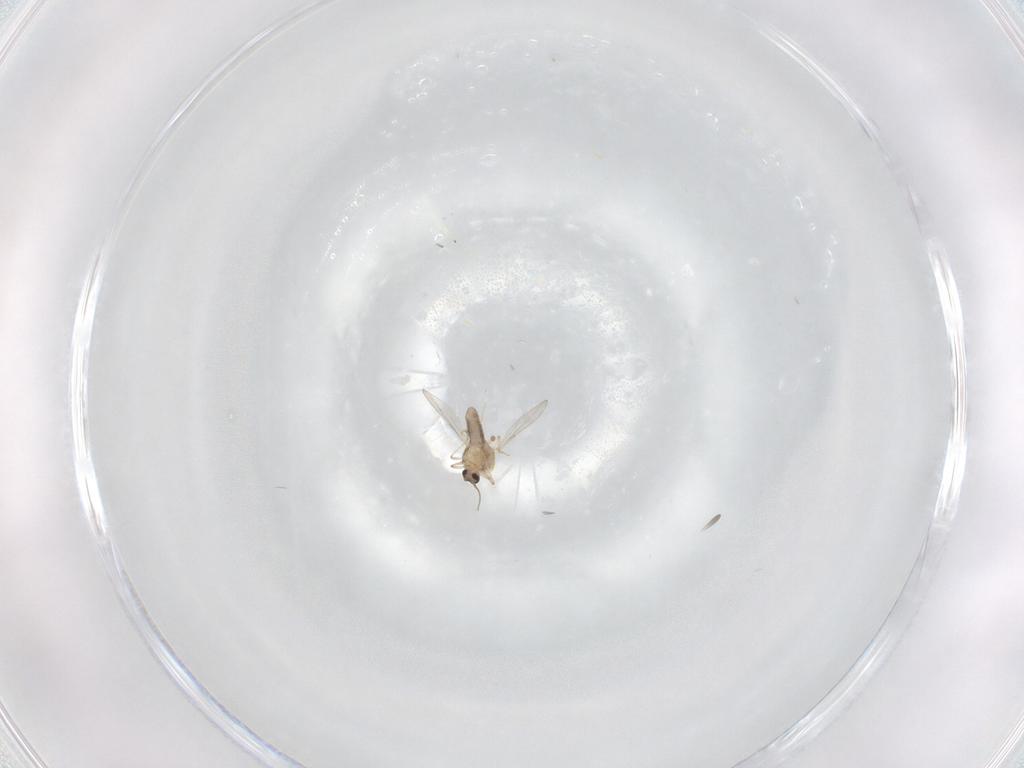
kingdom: Animalia
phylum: Arthropoda
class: Insecta
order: Diptera
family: Ceratopogonidae
